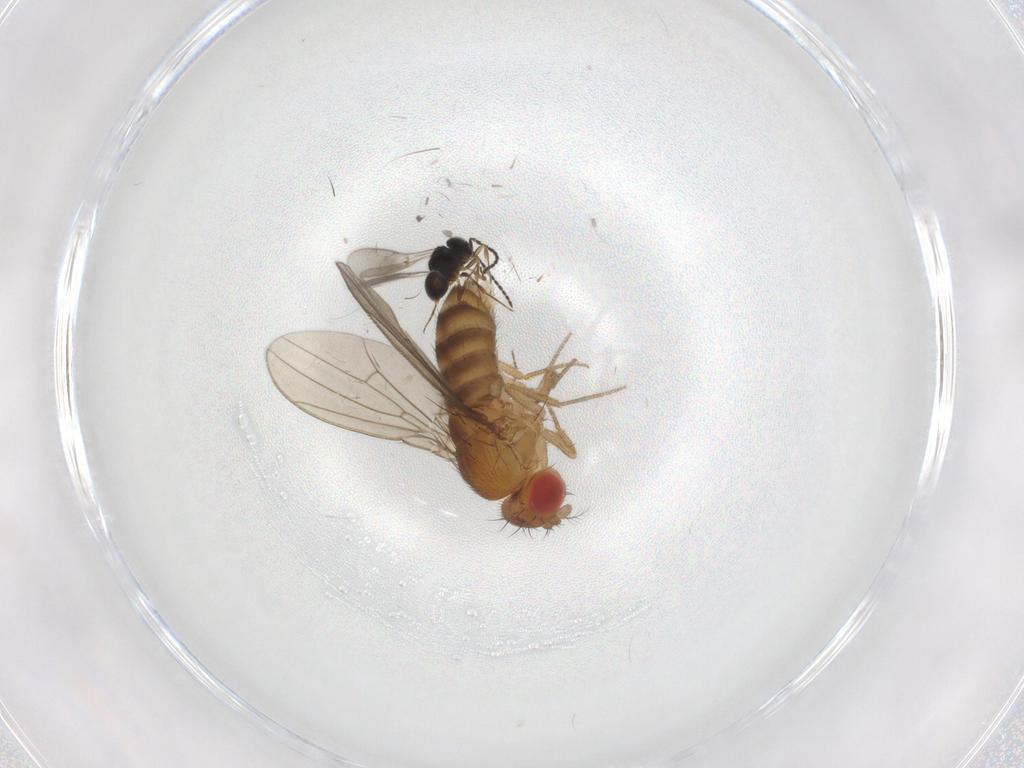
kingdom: Animalia
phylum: Arthropoda
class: Insecta
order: Diptera
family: Drosophilidae
